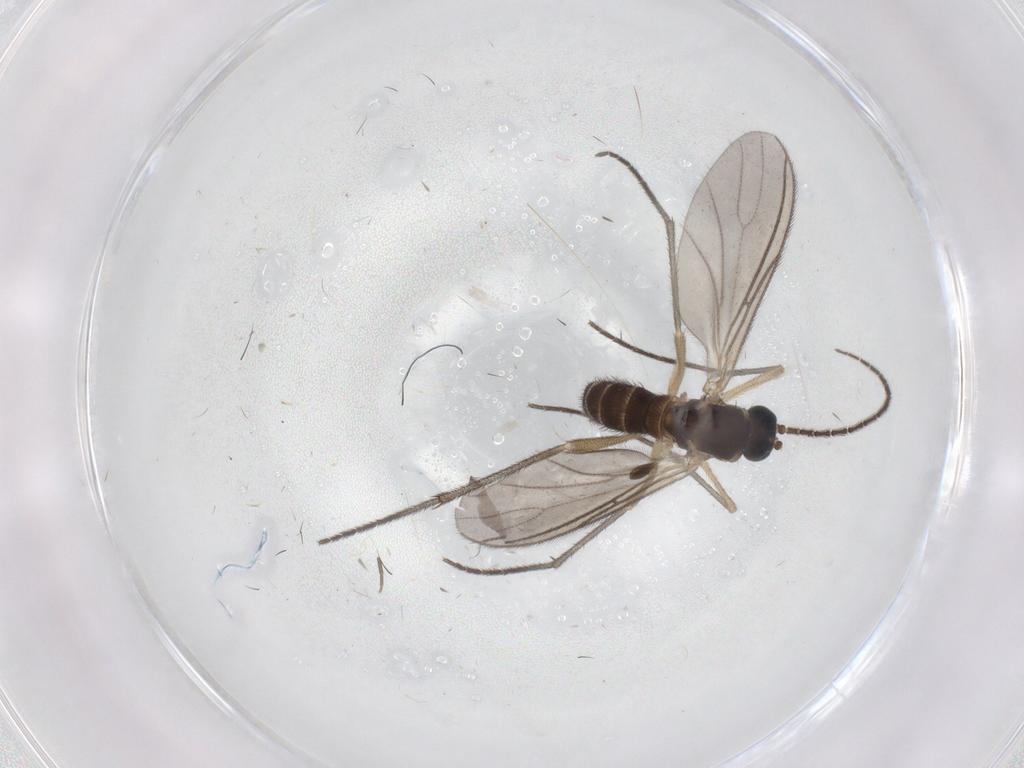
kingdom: Animalia
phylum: Arthropoda
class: Insecta
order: Diptera
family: Sciaridae
